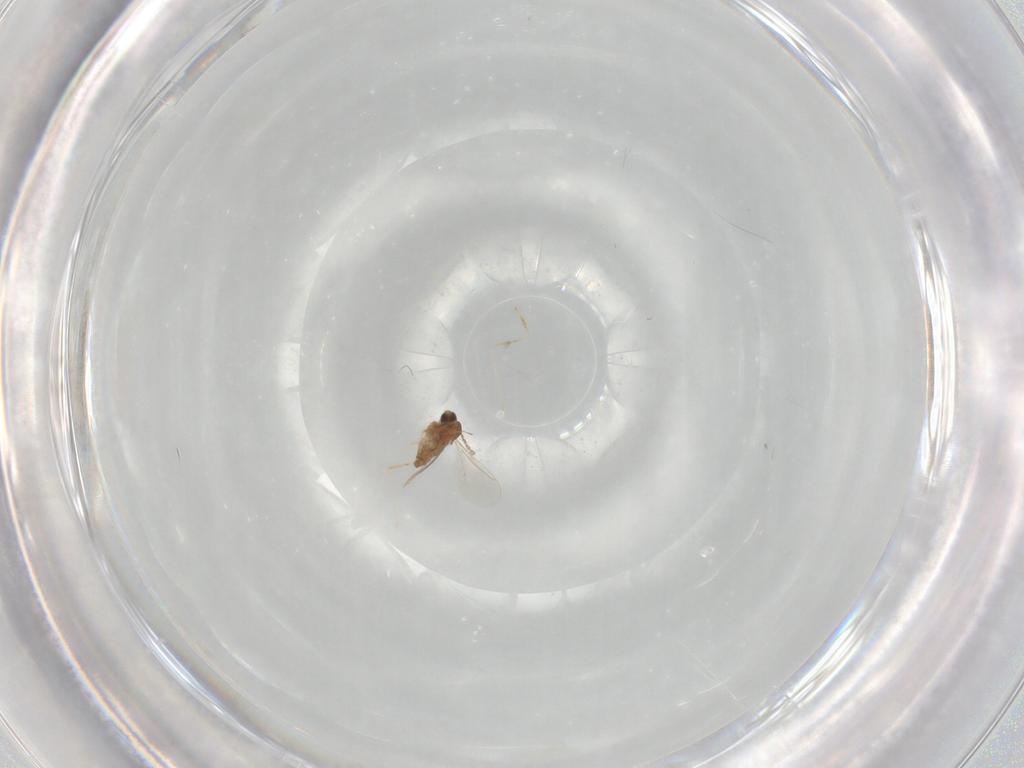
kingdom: Animalia
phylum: Arthropoda
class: Insecta
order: Diptera
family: Cecidomyiidae
